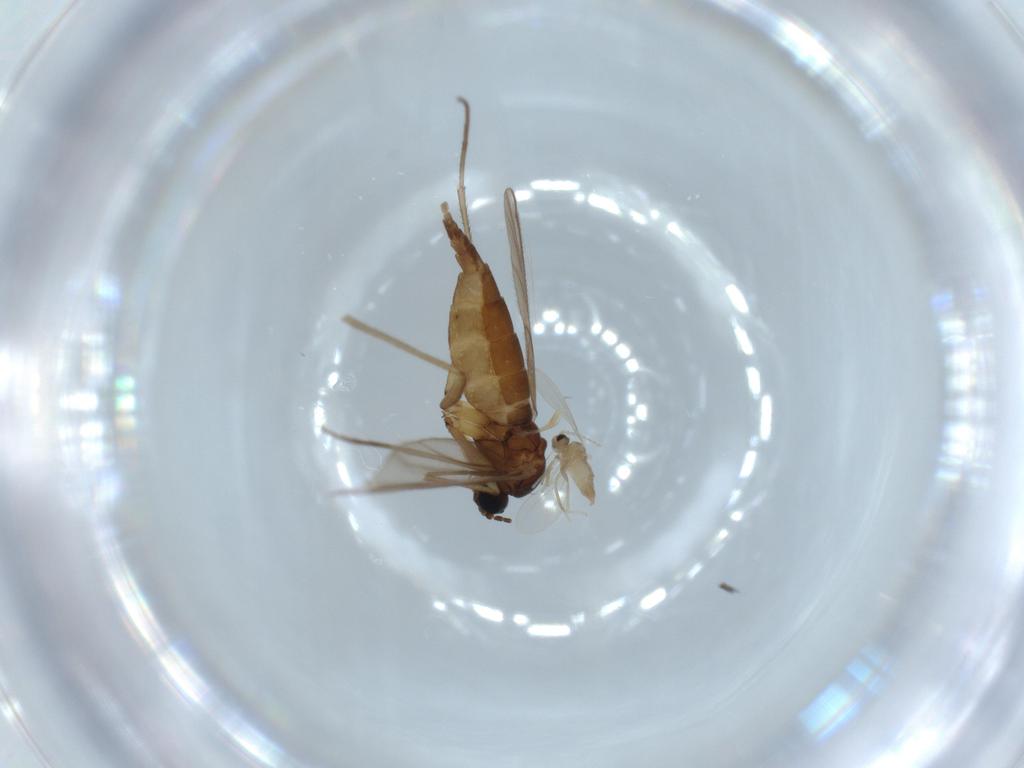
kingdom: Animalia
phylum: Arthropoda
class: Insecta
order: Diptera
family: Sciaridae
